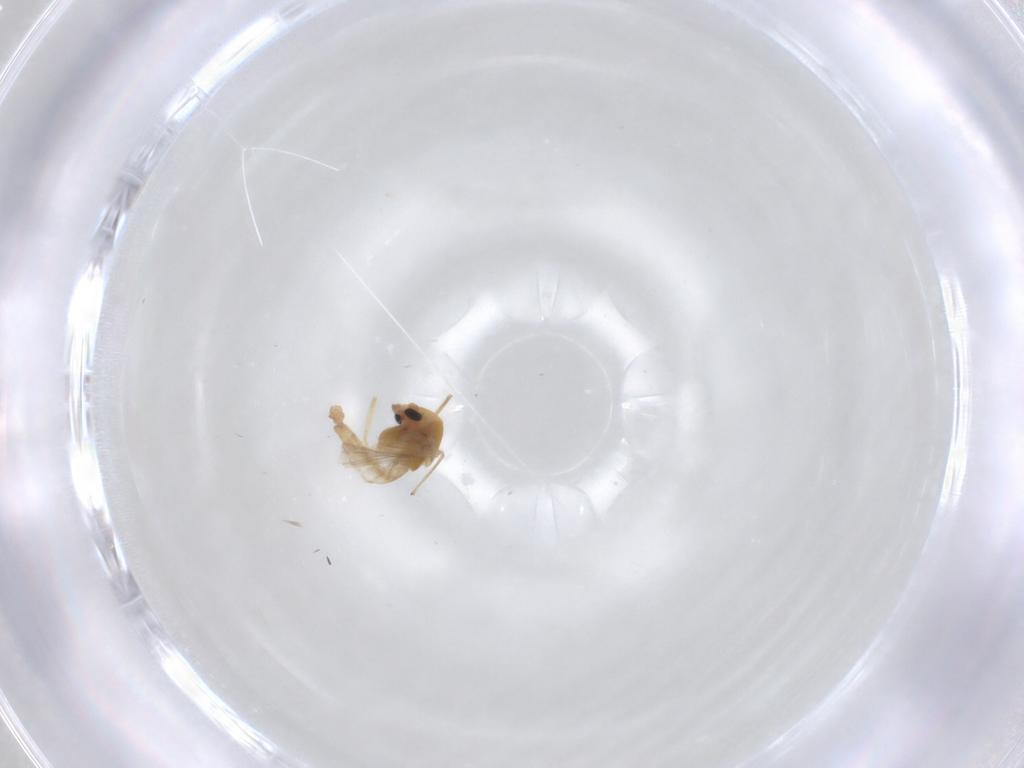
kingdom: Animalia
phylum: Arthropoda
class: Insecta
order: Diptera
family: Chironomidae
